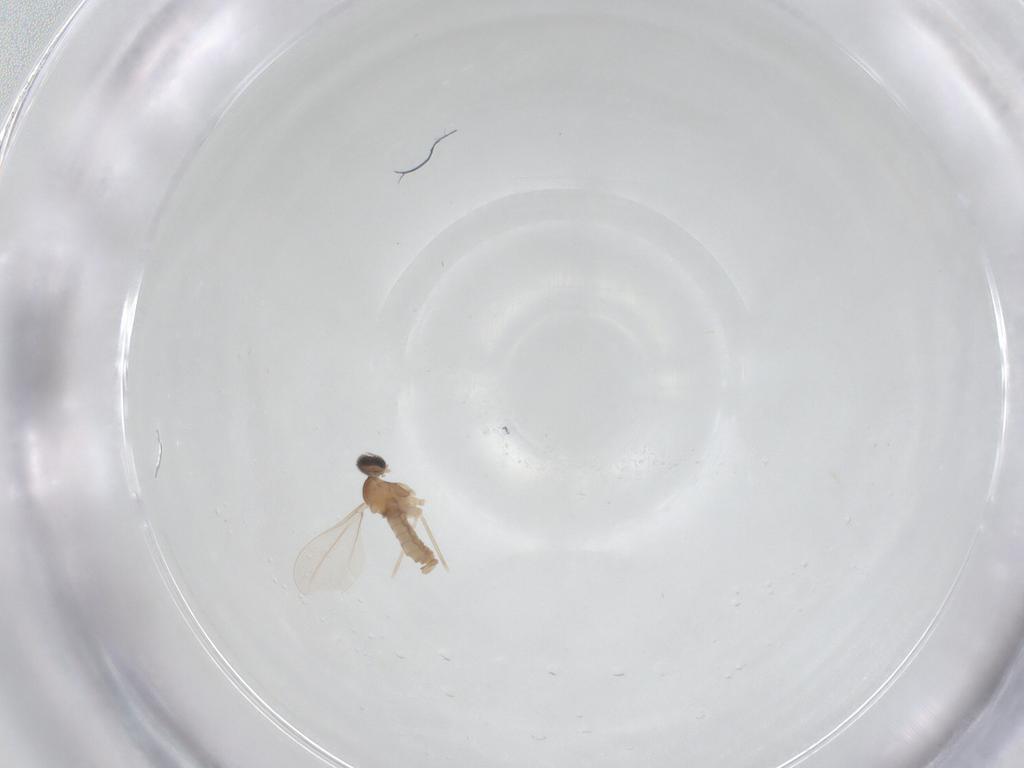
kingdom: Animalia
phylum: Arthropoda
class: Insecta
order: Diptera
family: Cecidomyiidae
